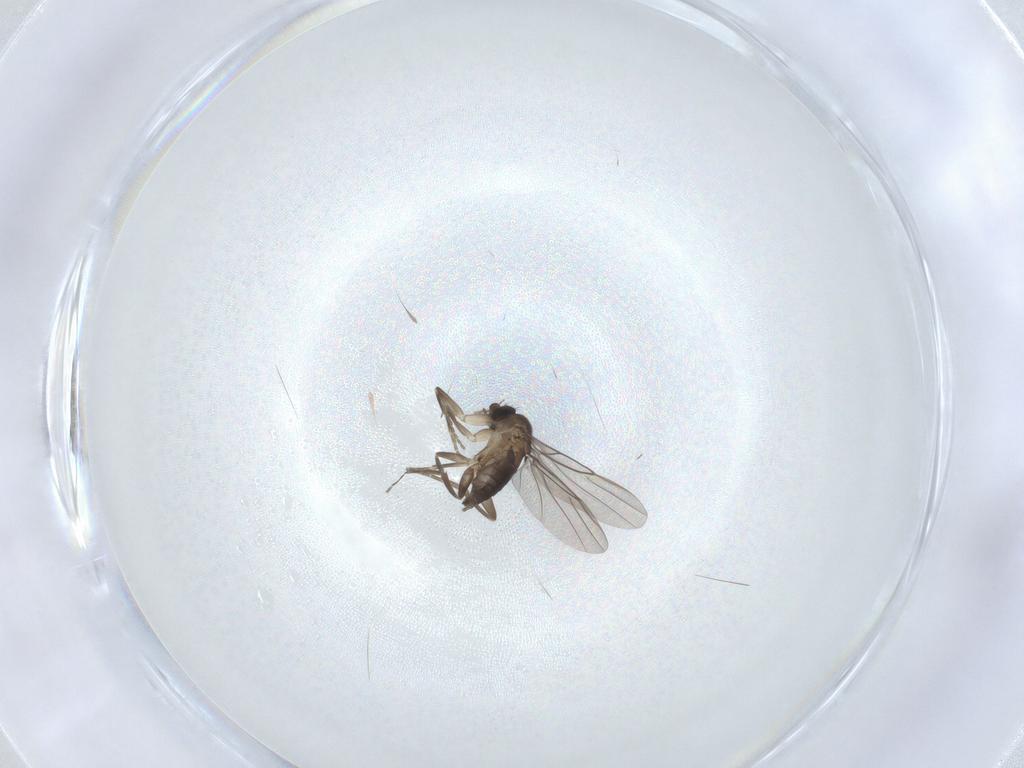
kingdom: Animalia
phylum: Arthropoda
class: Insecta
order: Diptera
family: Phoridae
